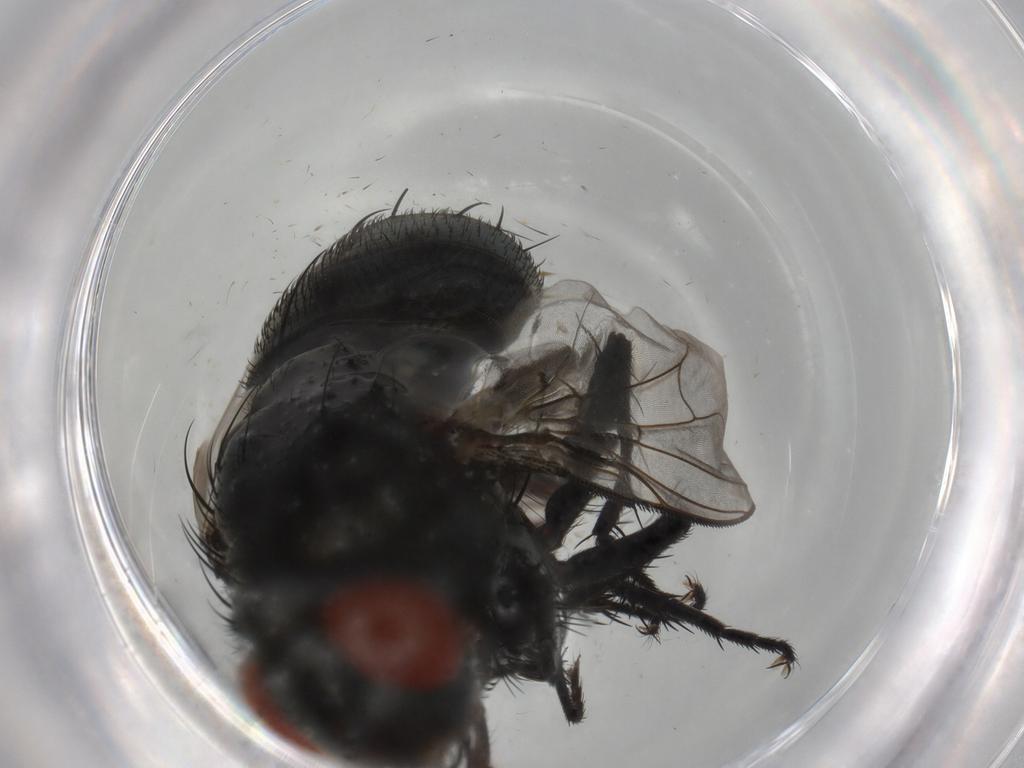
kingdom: Animalia
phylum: Arthropoda
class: Insecta
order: Diptera
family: Sarcophagidae
